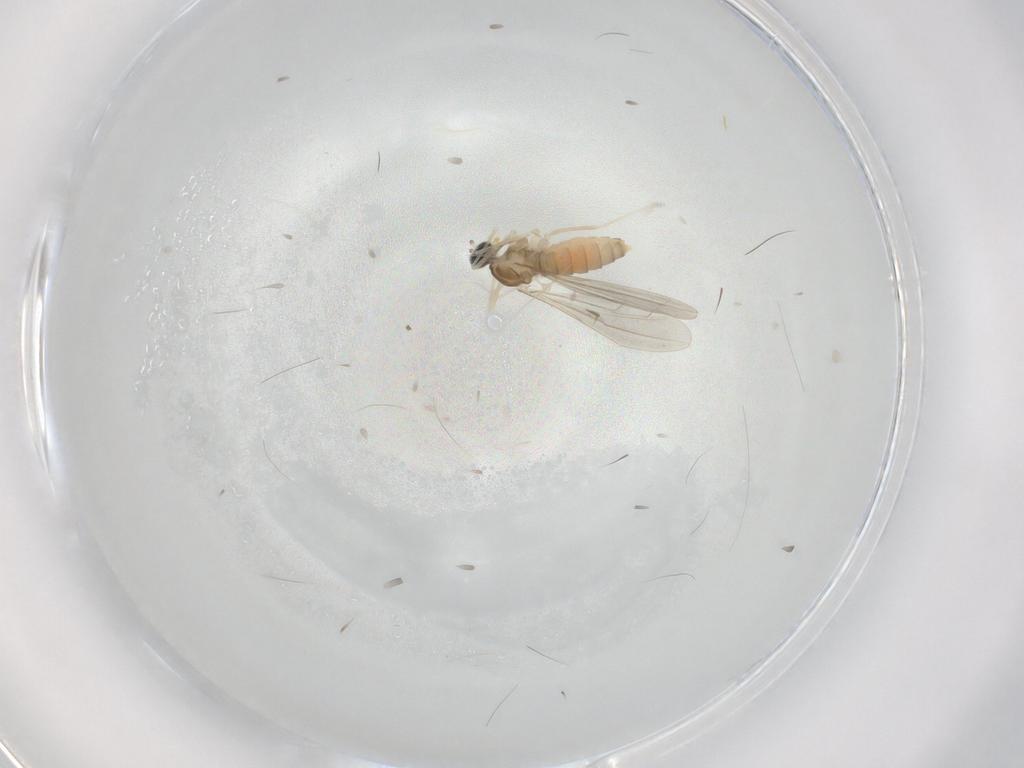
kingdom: Animalia
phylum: Arthropoda
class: Insecta
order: Diptera
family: Cecidomyiidae
